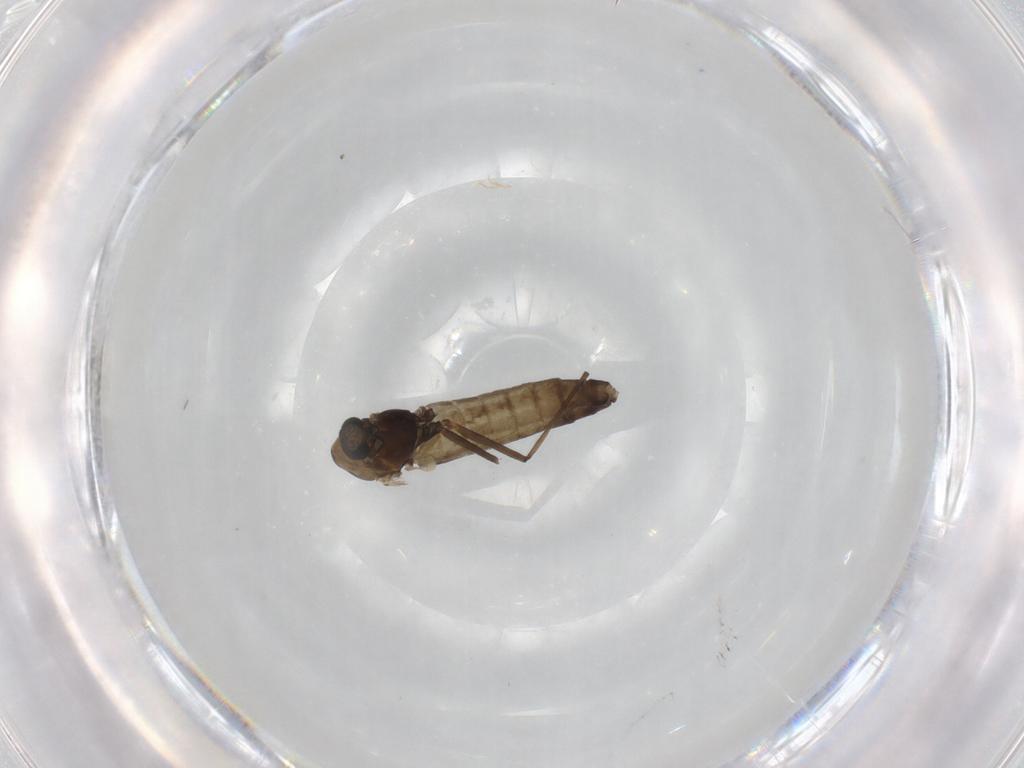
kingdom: Animalia
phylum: Arthropoda
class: Insecta
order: Diptera
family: Chironomidae
